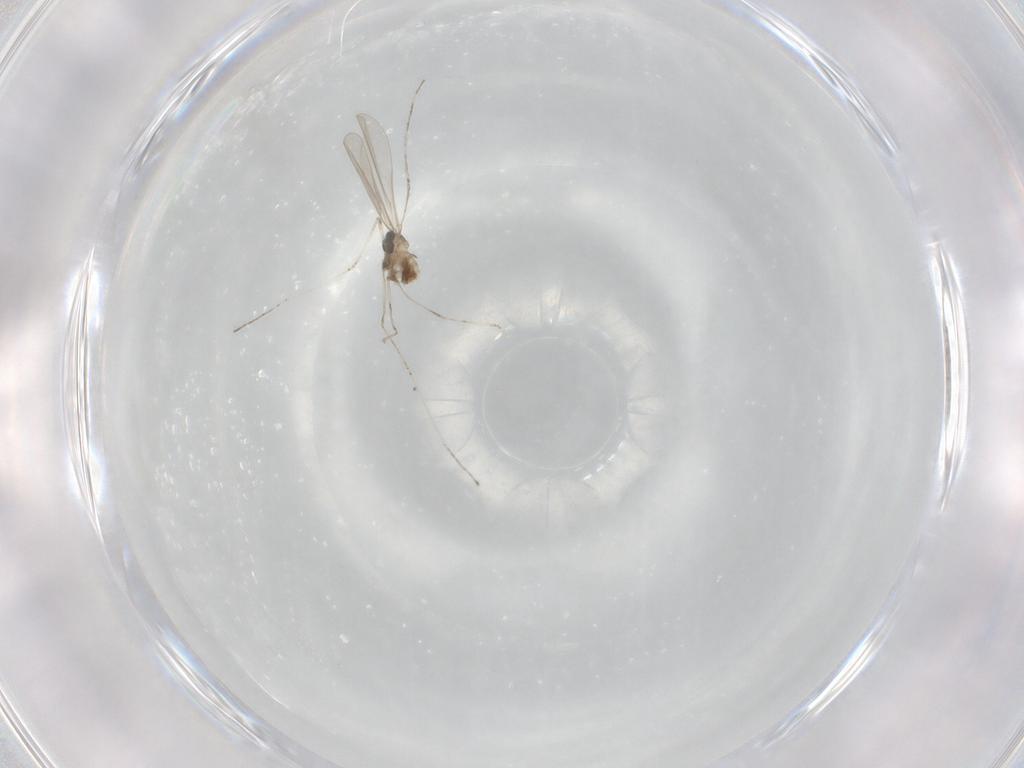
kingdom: Animalia
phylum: Arthropoda
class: Insecta
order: Diptera
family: Cecidomyiidae
